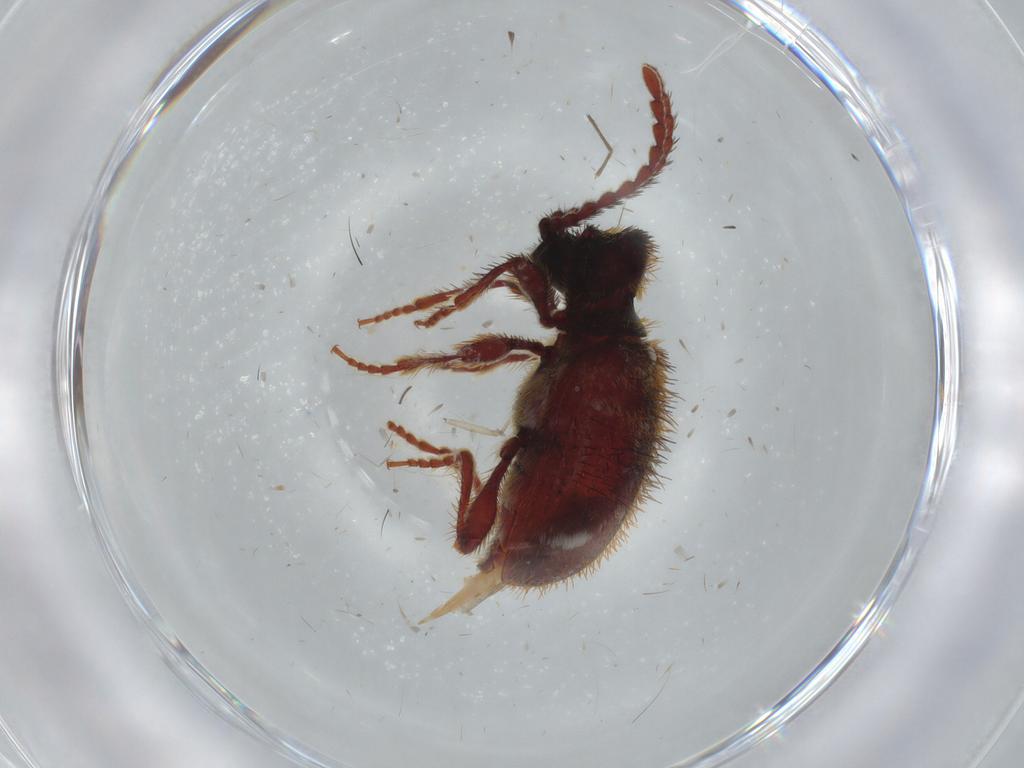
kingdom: Animalia
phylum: Arthropoda
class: Insecta
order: Coleoptera
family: Ptinidae
